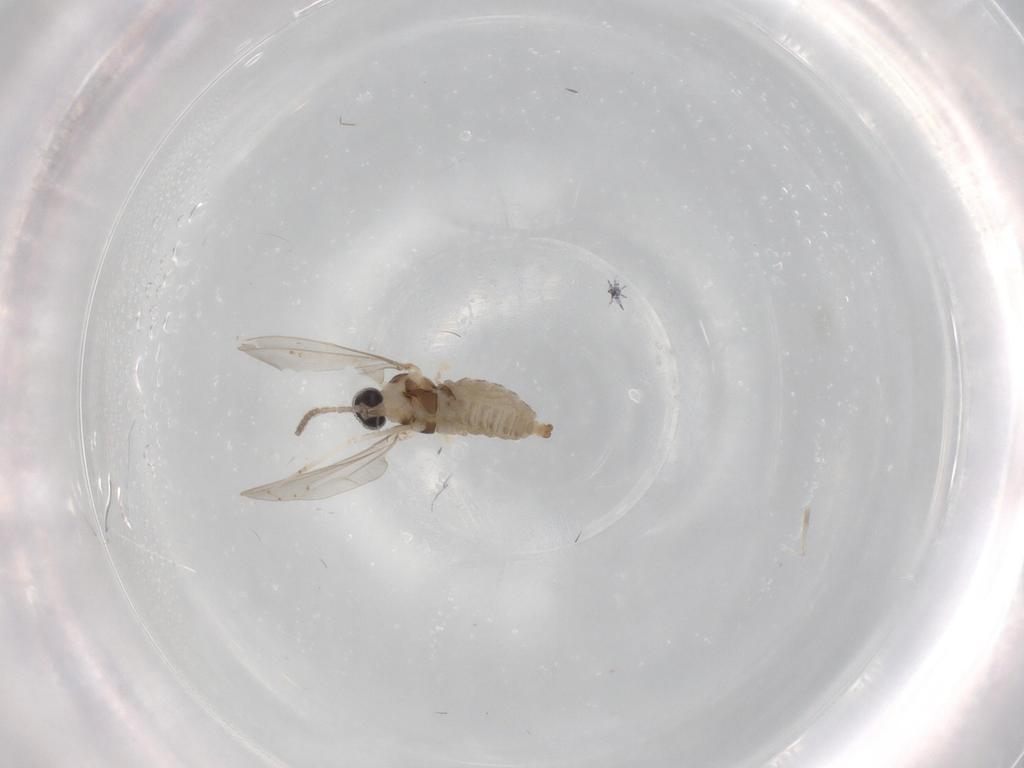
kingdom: Animalia
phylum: Arthropoda
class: Insecta
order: Diptera
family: Cecidomyiidae
